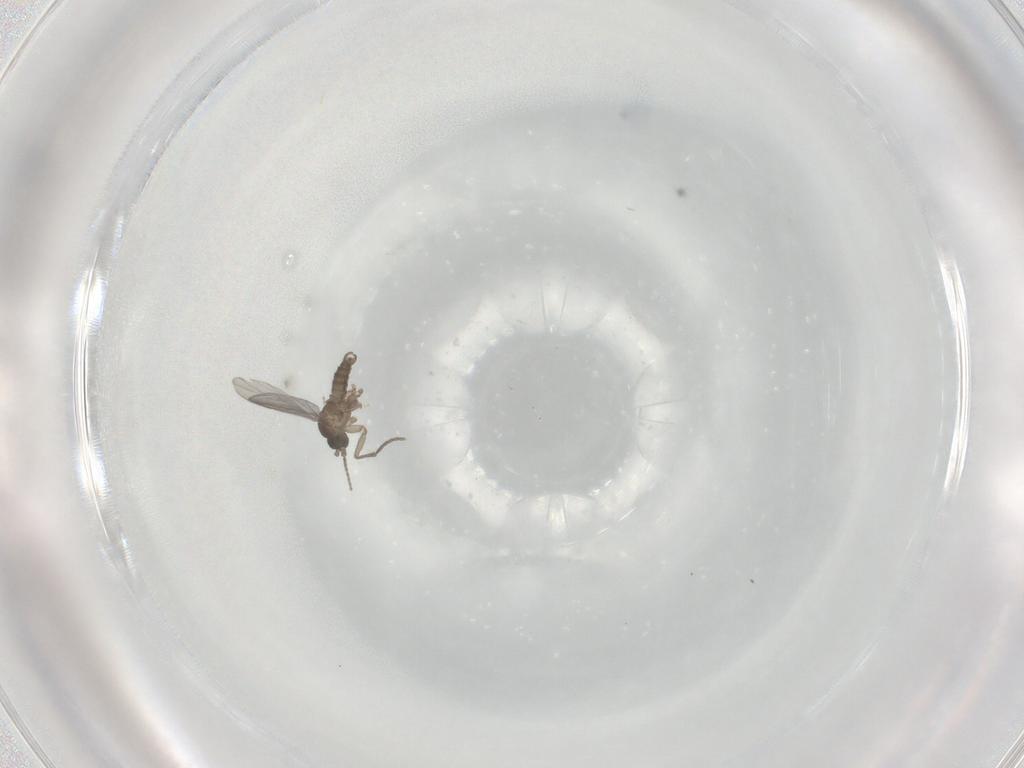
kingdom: Animalia
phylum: Arthropoda
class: Insecta
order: Diptera
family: Sciaridae
